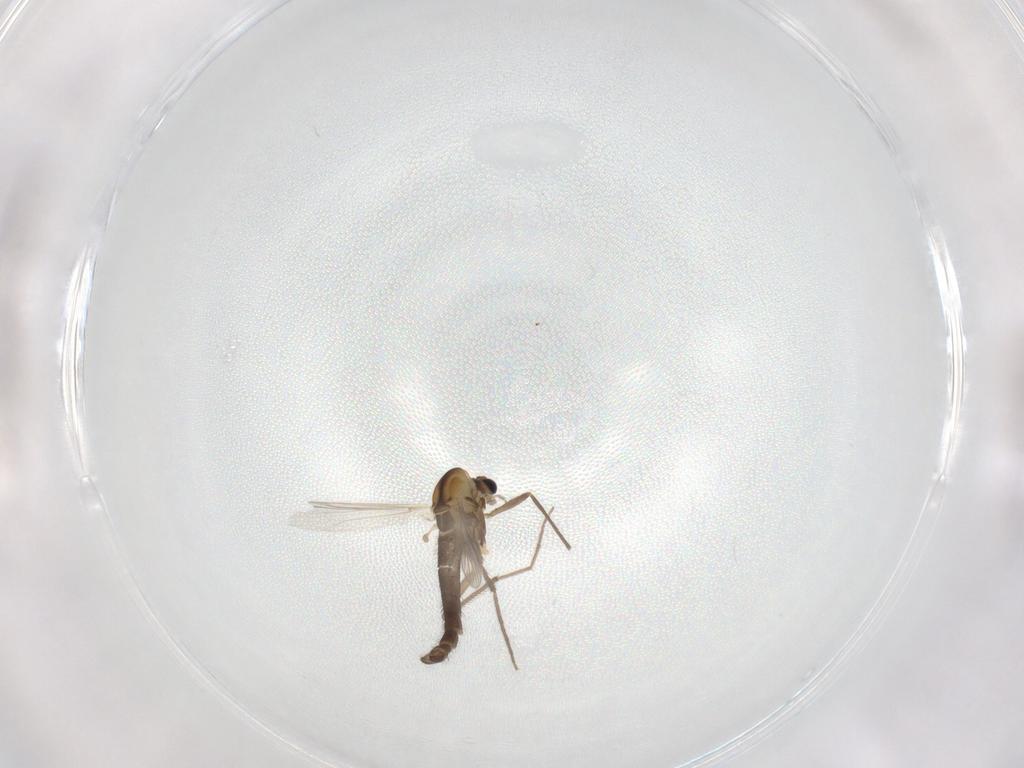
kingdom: Animalia
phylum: Arthropoda
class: Insecta
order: Diptera
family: Chironomidae
